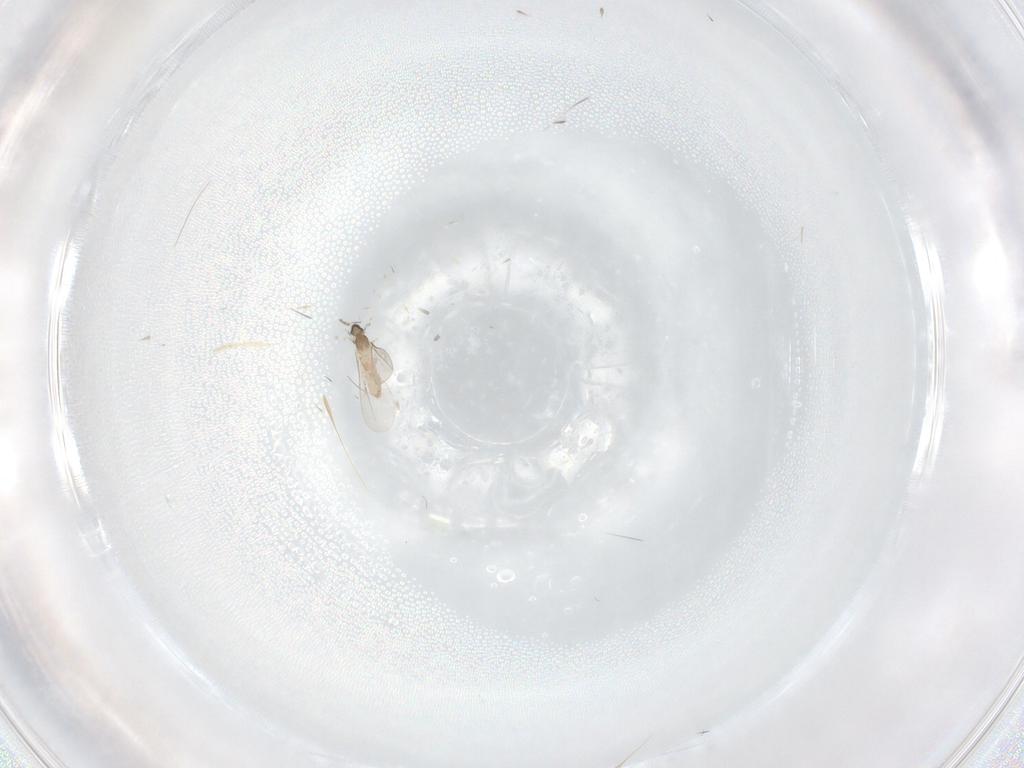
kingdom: Animalia
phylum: Arthropoda
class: Insecta
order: Diptera
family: Cecidomyiidae
